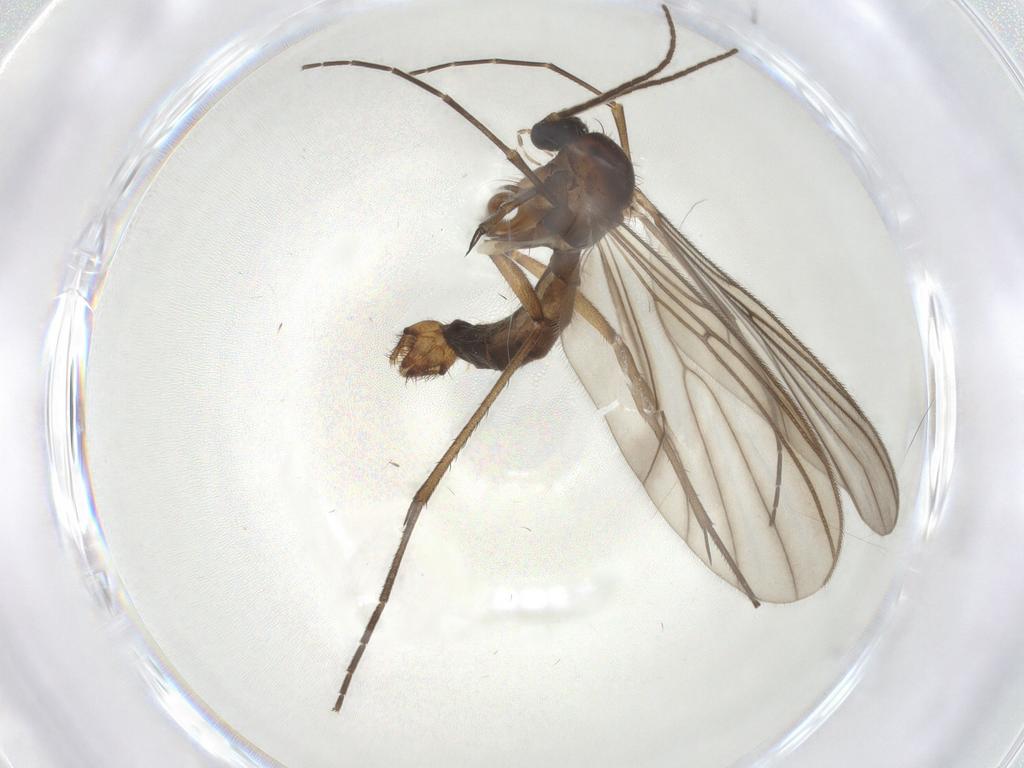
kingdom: Animalia
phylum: Arthropoda
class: Insecta
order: Diptera
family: Mycetophilidae
